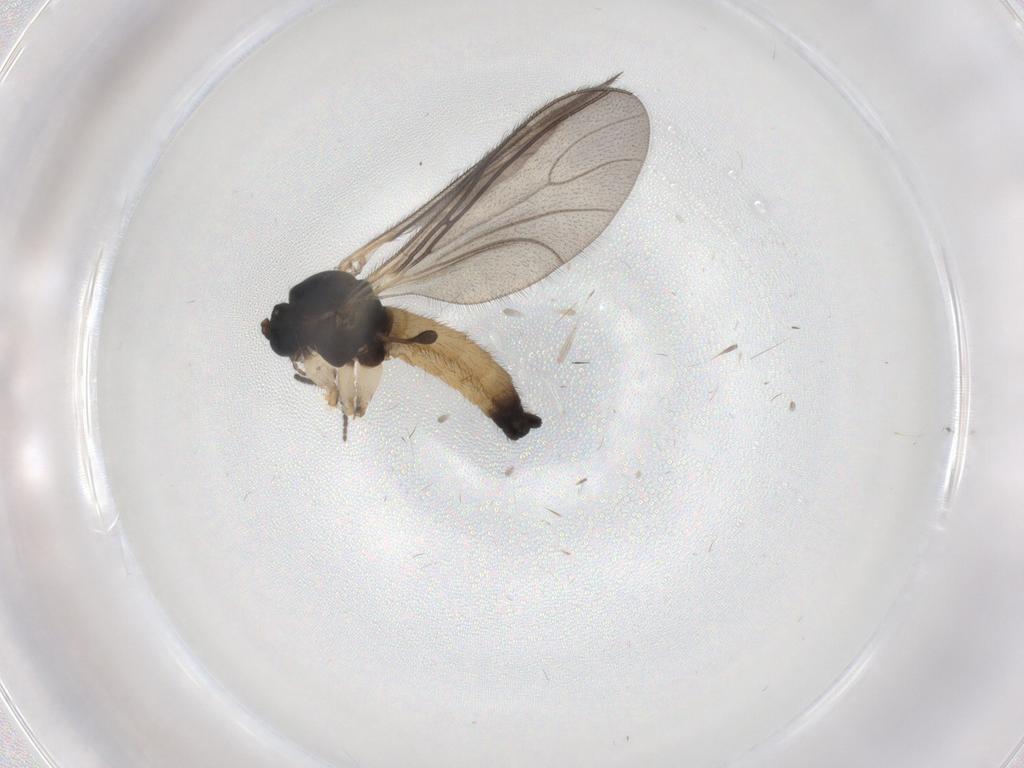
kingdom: Animalia
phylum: Arthropoda
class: Insecta
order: Diptera
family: Sciaridae
